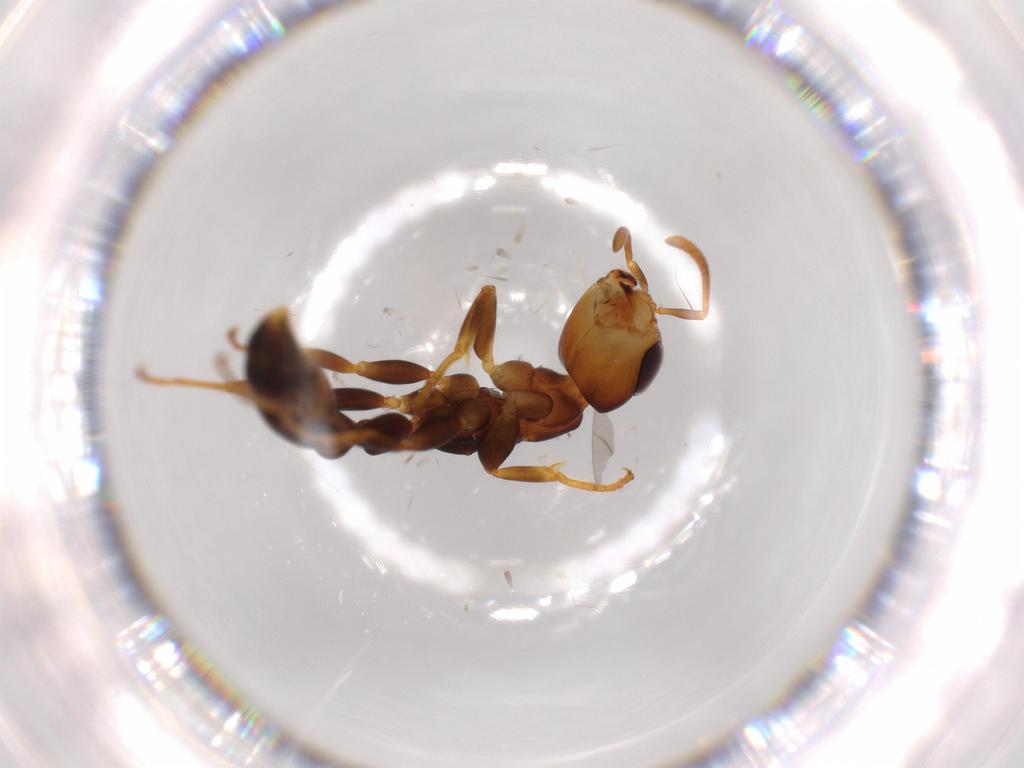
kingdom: Animalia
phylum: Arthropoda
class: Insecta
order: Hymenoptera
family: Formicidae
